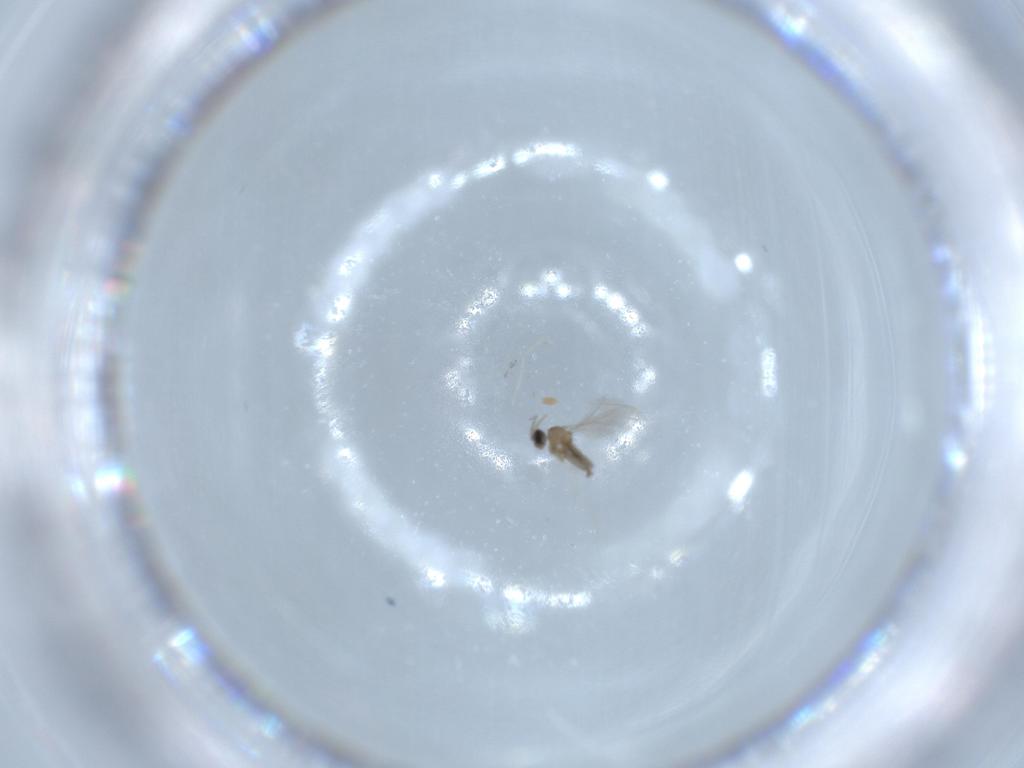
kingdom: Animalia
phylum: Arthropoda
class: Insecta
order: Diptera
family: Cecidomyiidae
